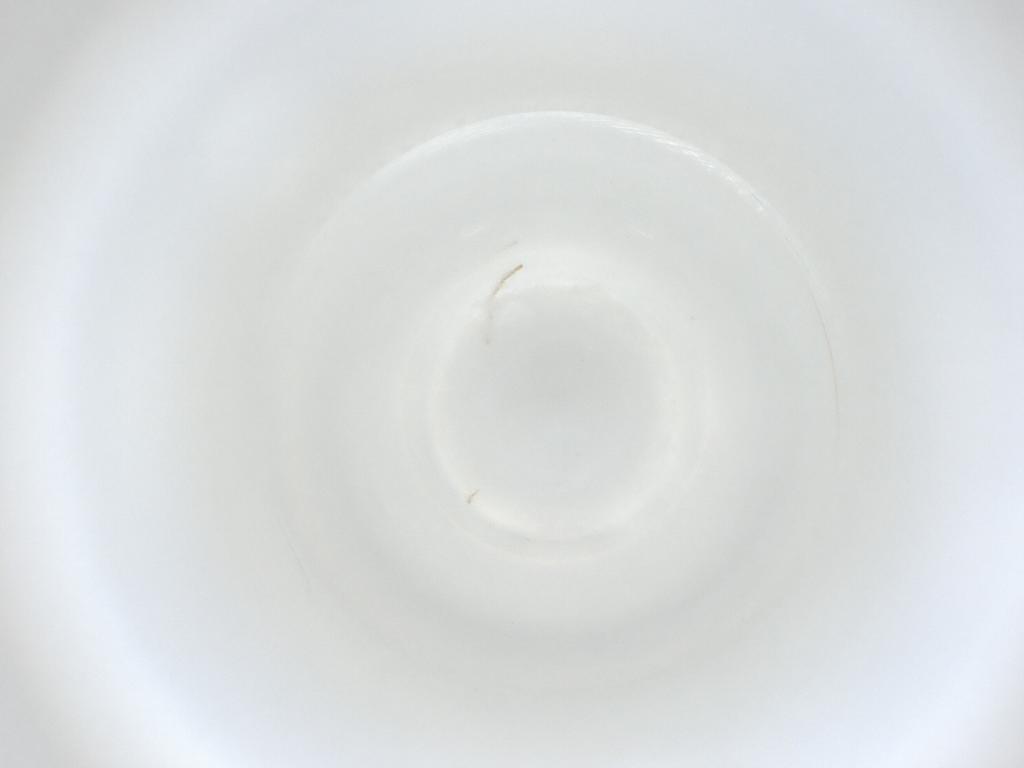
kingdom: Animalia
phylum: Arthropoda
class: Insecta
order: Diptera
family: Cecidomyiidae
